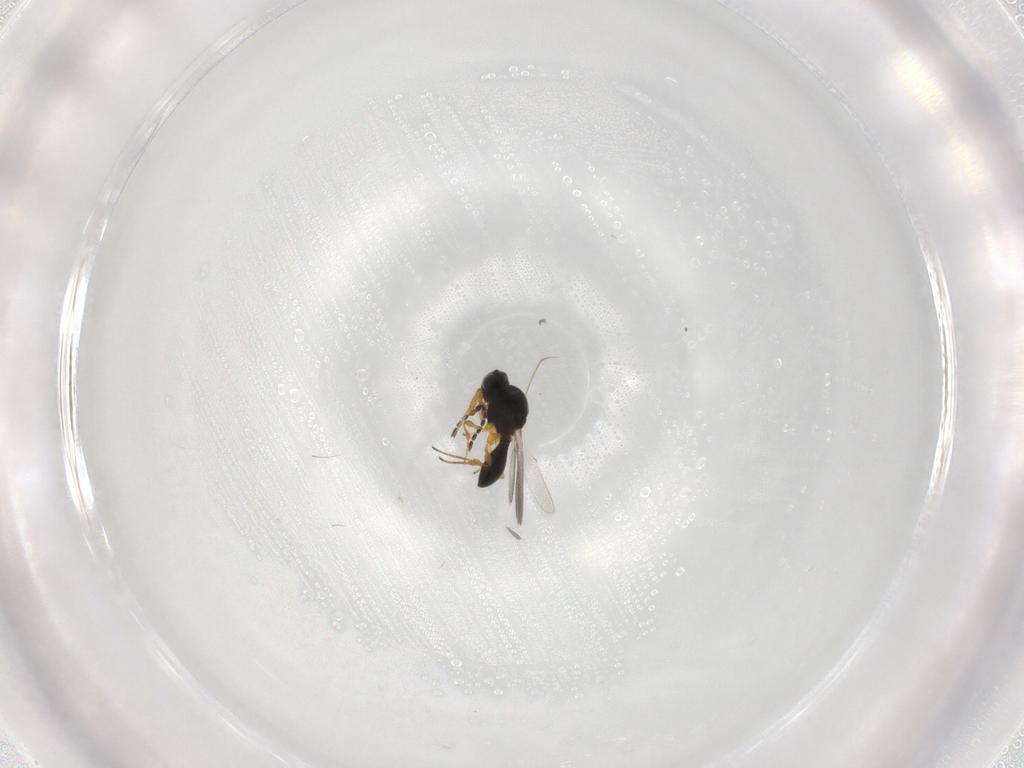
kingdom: Animalia
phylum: Arthropoda
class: Insecta
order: Hymenoptera
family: Platygastridae
